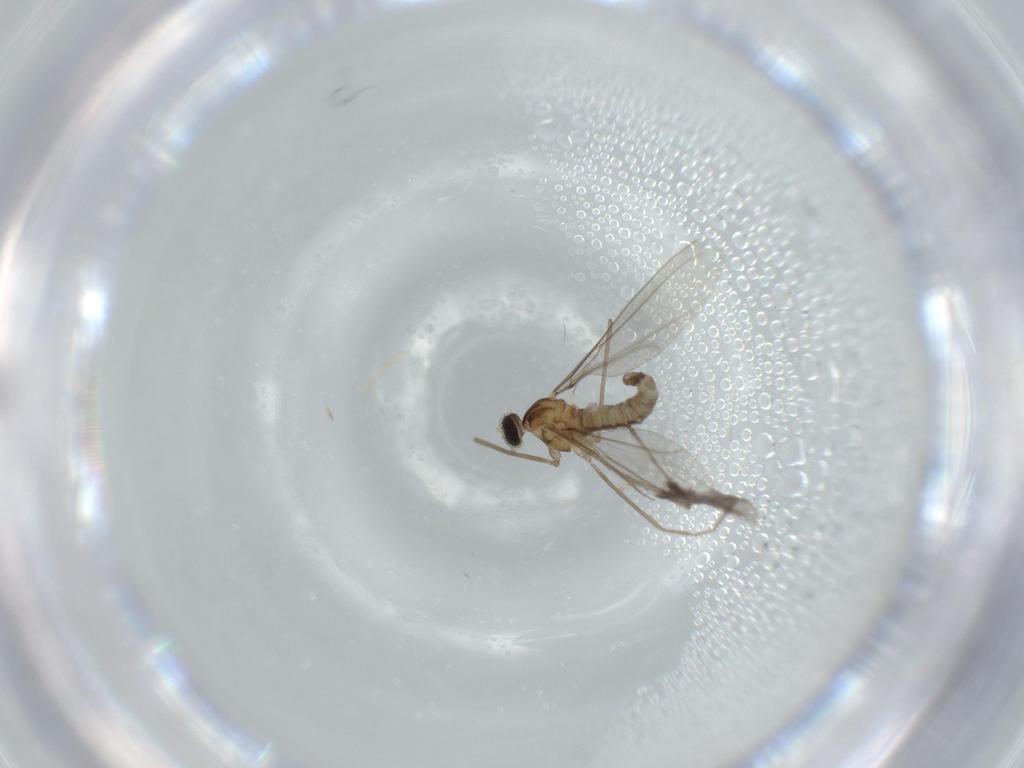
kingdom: Animalia
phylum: Arthropoda
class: Insecta
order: Diptera
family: Cecidomyiidae
